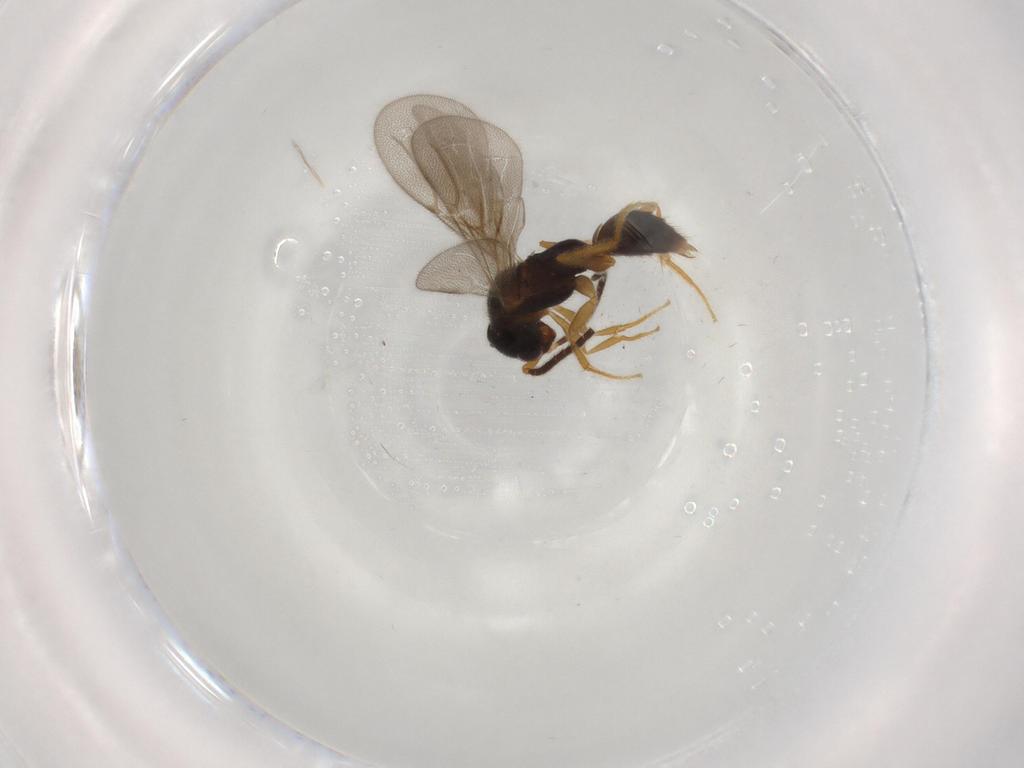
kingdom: Animalia
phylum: Arthropoda
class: Insecta
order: Hymenoptera
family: Bethylidae
